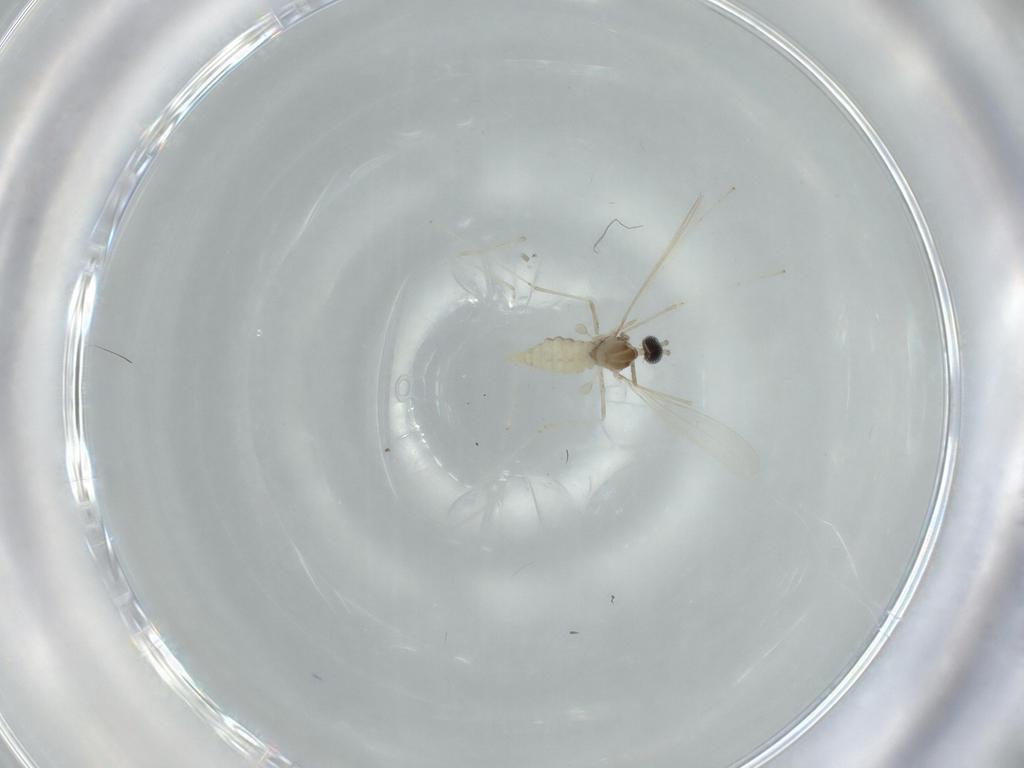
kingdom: Animalia
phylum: Arthropoda
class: Insecta
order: Diptera
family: Cecidomyiidae
